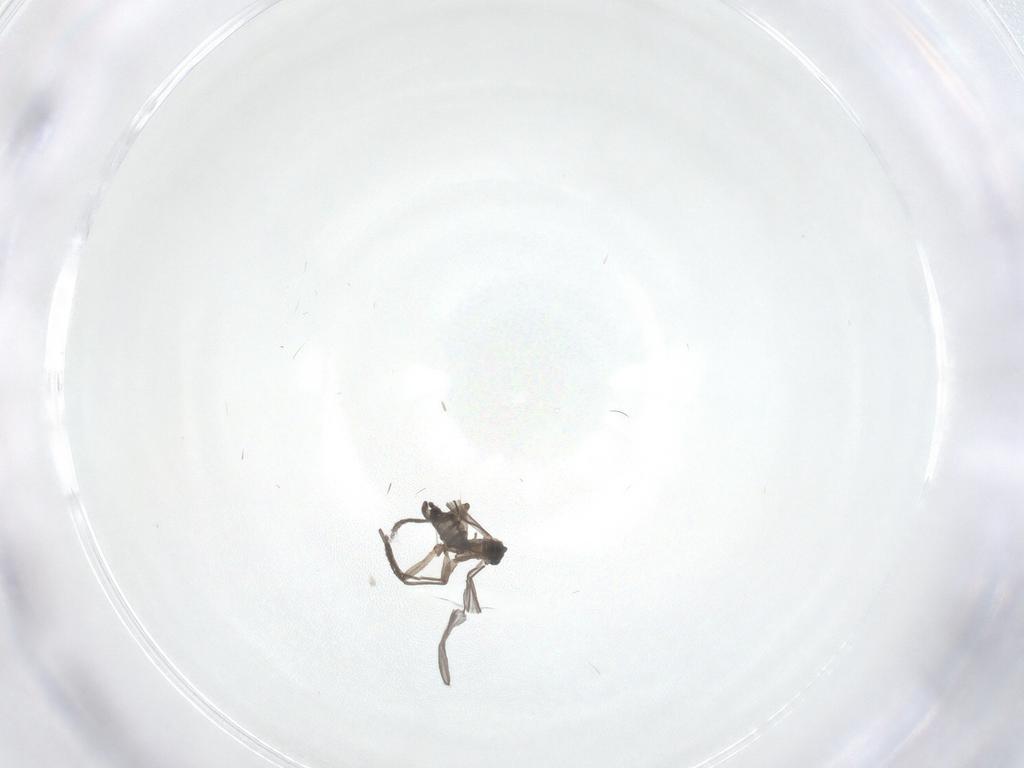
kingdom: Animalia
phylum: Arthropoda
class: Insecta
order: Diptera
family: Sciaridae
